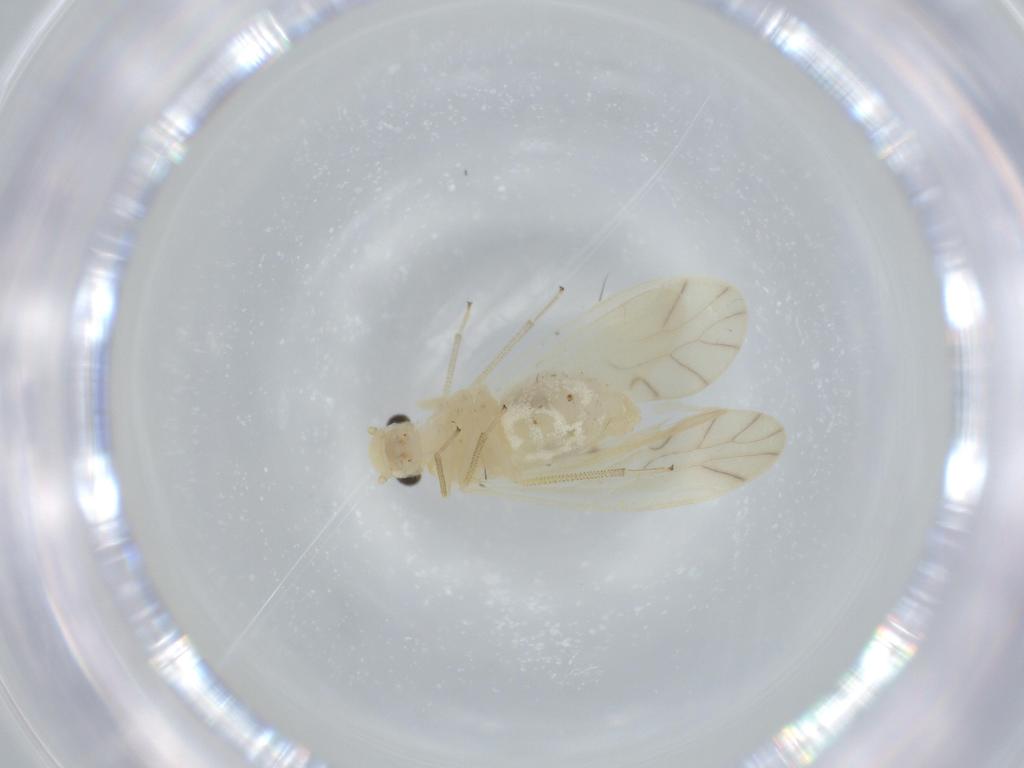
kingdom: Animalia
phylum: Arthropoda
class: Insecta
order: Psocodea
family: Caeciliusidae
